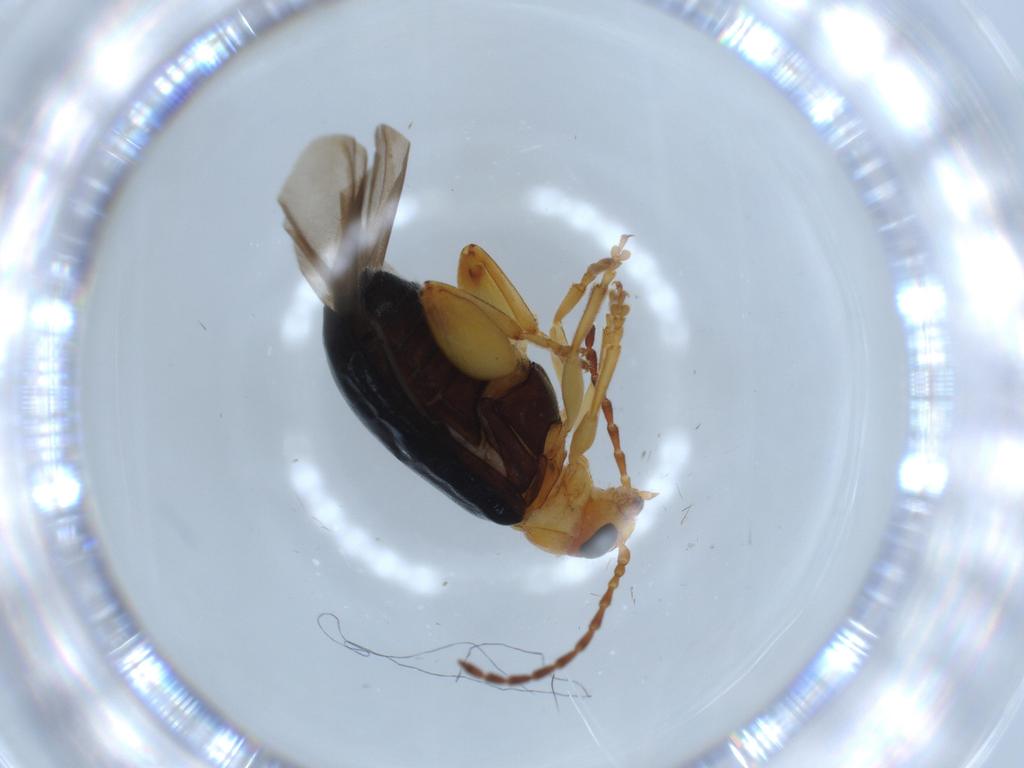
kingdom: Animalia
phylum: Arthropoda
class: Insecta
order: Coleoptera
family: Chrysomelidae
